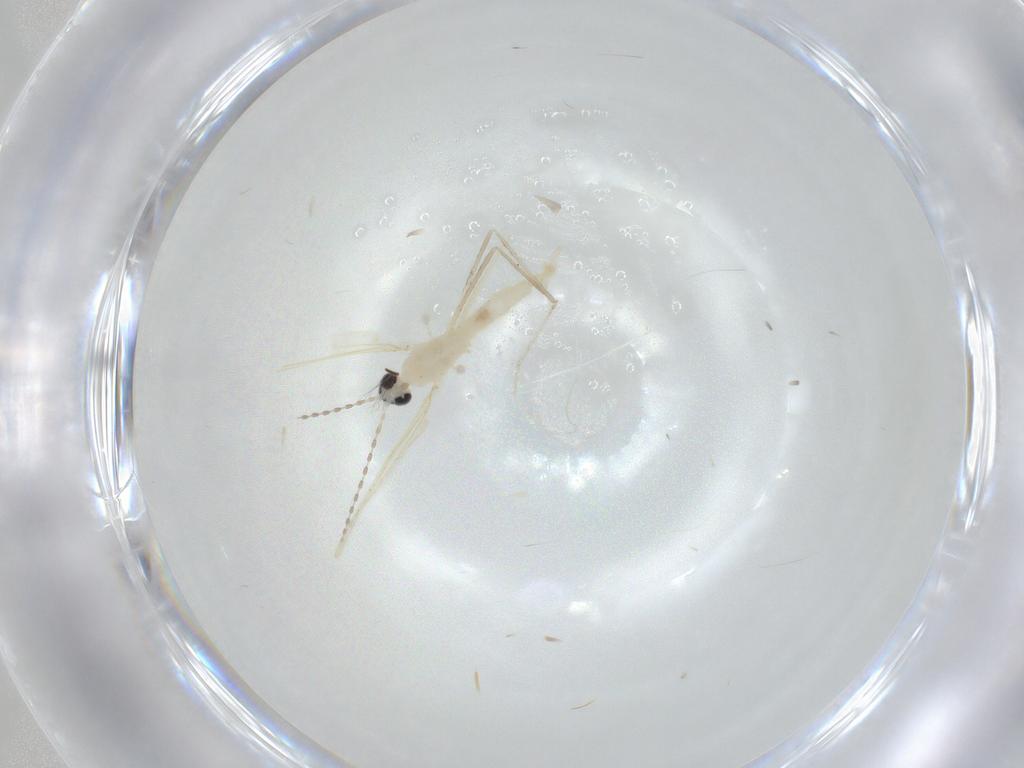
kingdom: Animalia
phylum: Arthropoda
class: Insecta
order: Diptera
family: Cecidomyiidae
